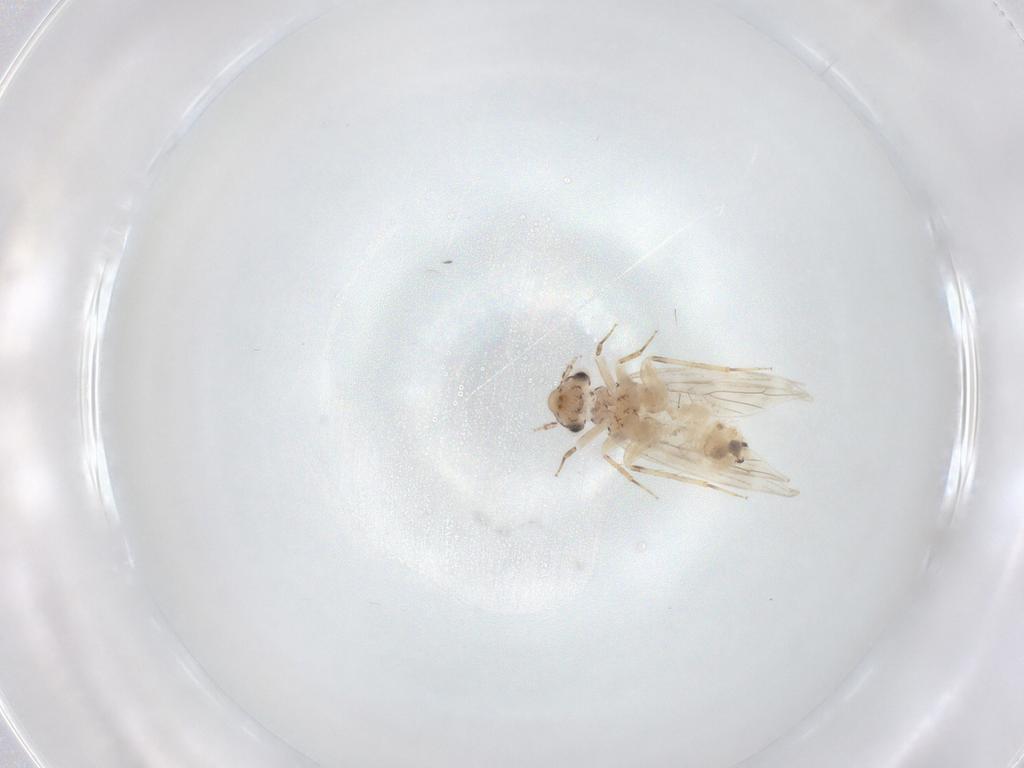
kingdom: Animalia
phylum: Arthropoda
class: Insecta
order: Psocodea
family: Lepidopsocidae
